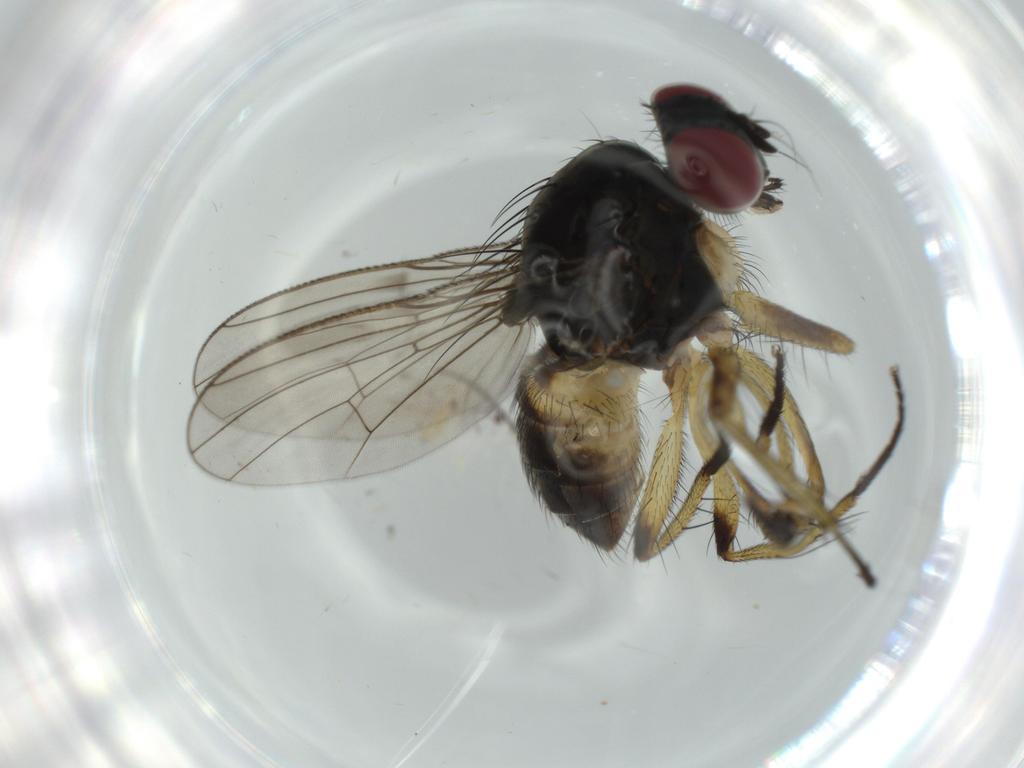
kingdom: Animalia
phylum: Arthropoda
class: Insecta
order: Diptera
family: Muscidae
